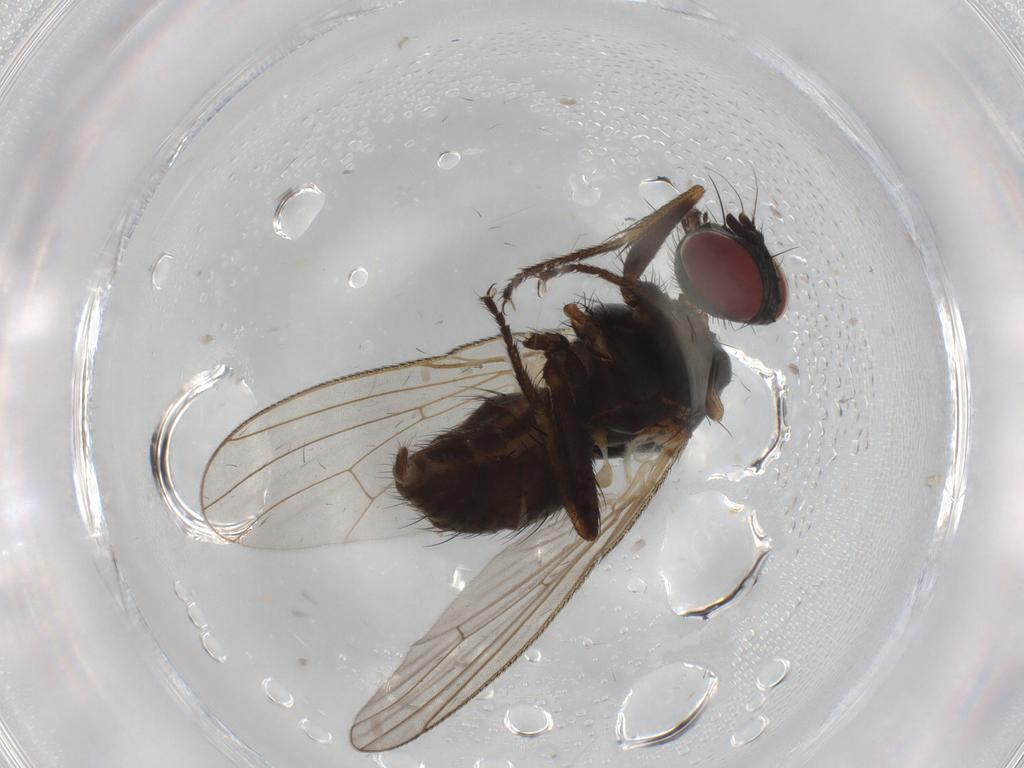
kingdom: Animalia
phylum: Arthropoda
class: Insecta
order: Diptera
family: Muscidae
